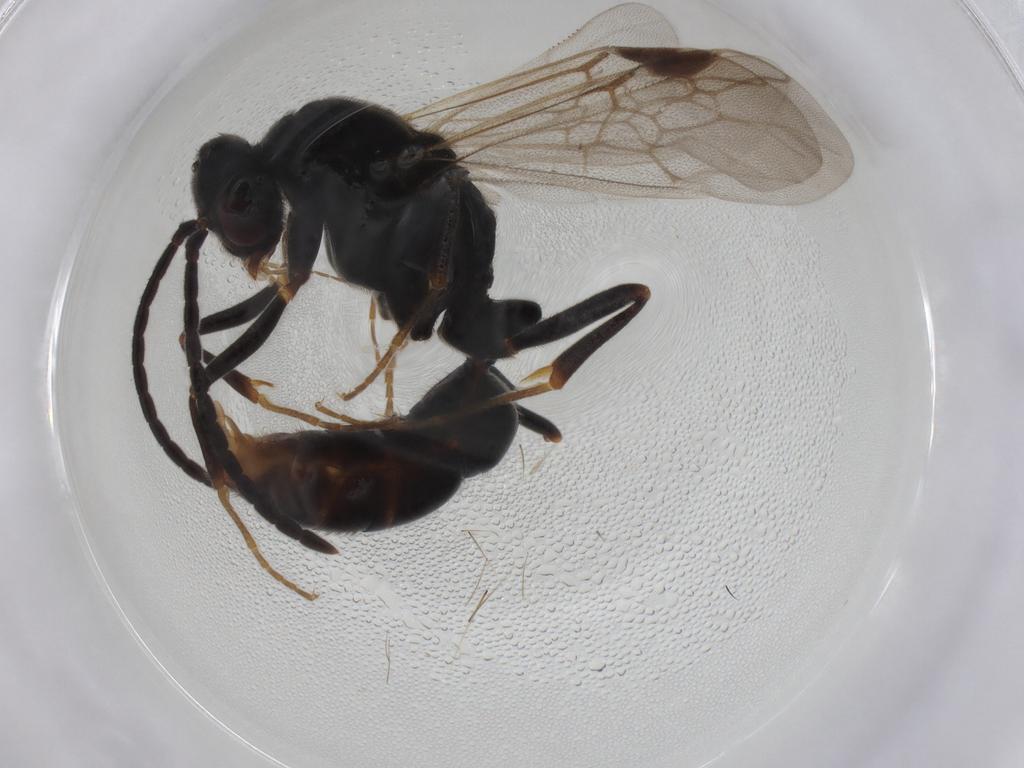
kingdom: Animalia
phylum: Arthropoda
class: Insecta
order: Hymenoptera
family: Formicidae
